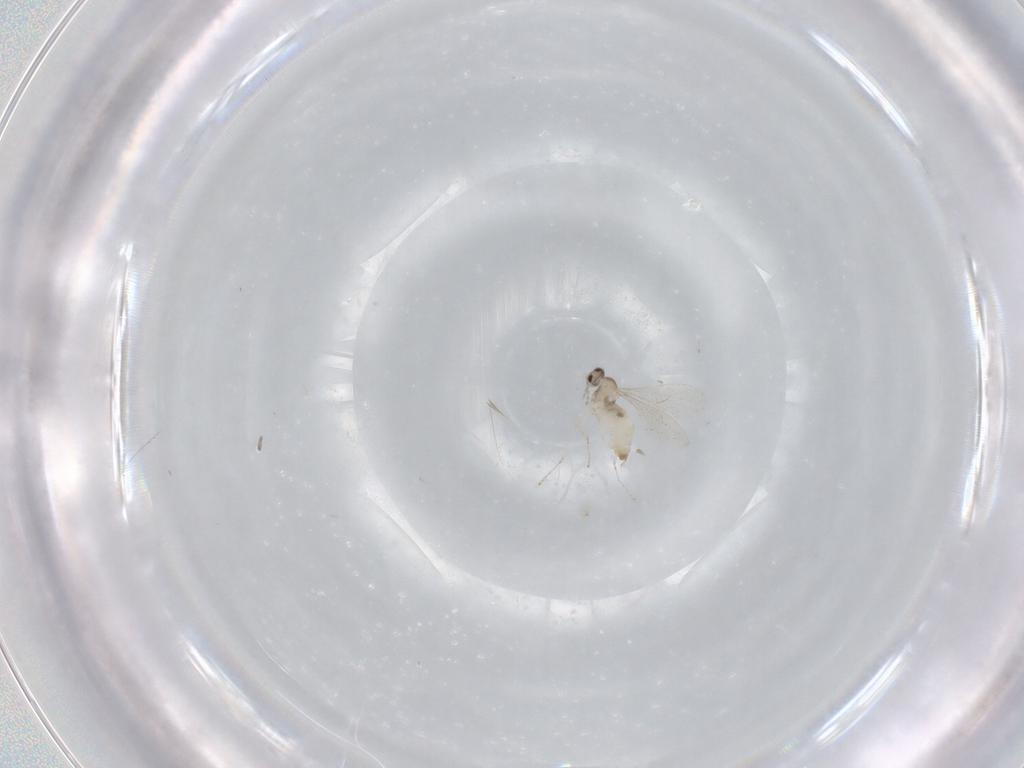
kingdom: Animalia
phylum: Arthropoda
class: Insecta
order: Diptera
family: Cecidomyiidae
